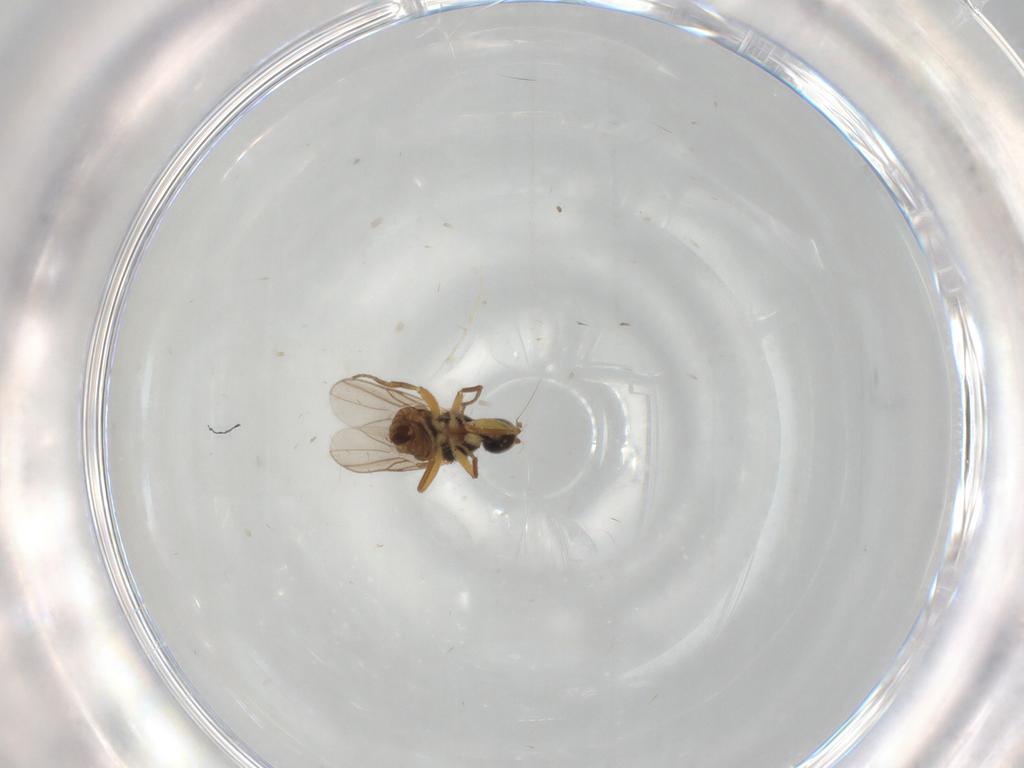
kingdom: Animalia
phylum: Arthropoda
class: Insecta
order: Diptera
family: Hybotidae
